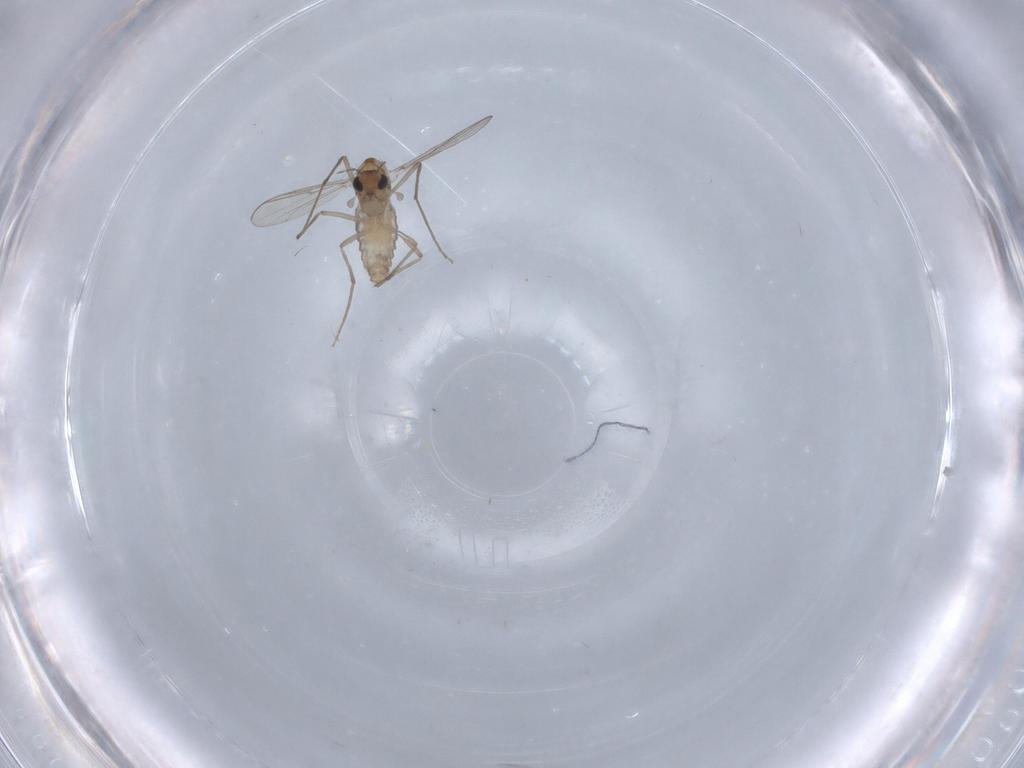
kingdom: Animalia
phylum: Arthropoda
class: Insecta
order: Diptera
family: Chironomidae
